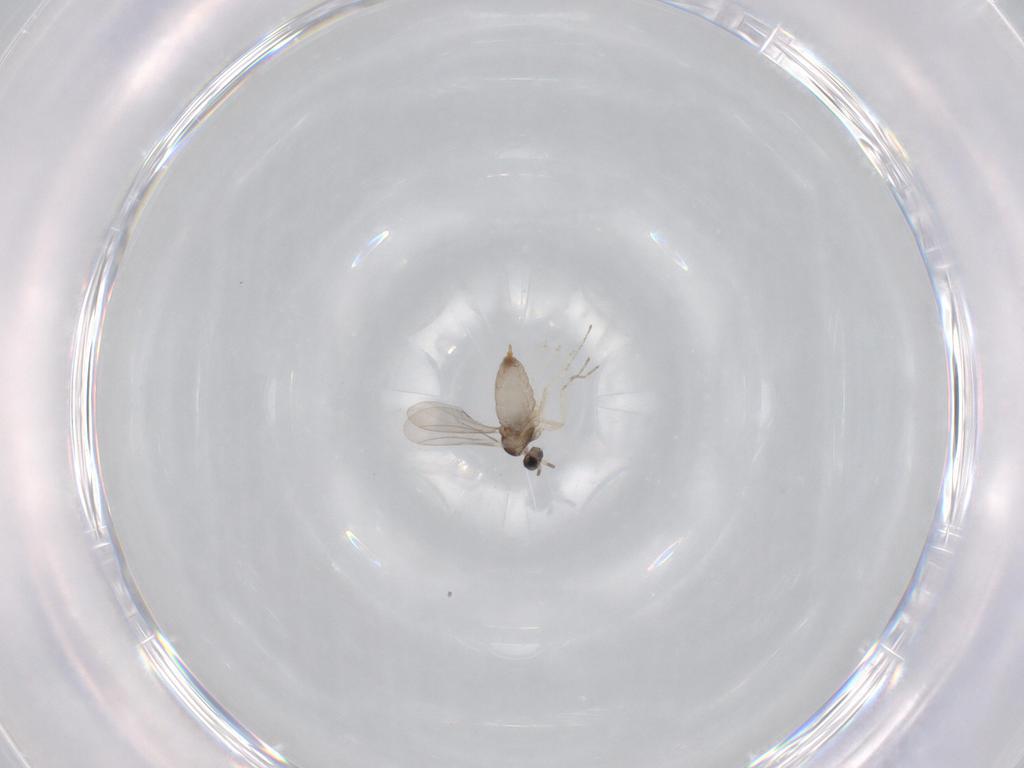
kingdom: Animalia
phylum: Arthropoda
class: Insecta
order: Diptera
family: Cecidomyiidae
